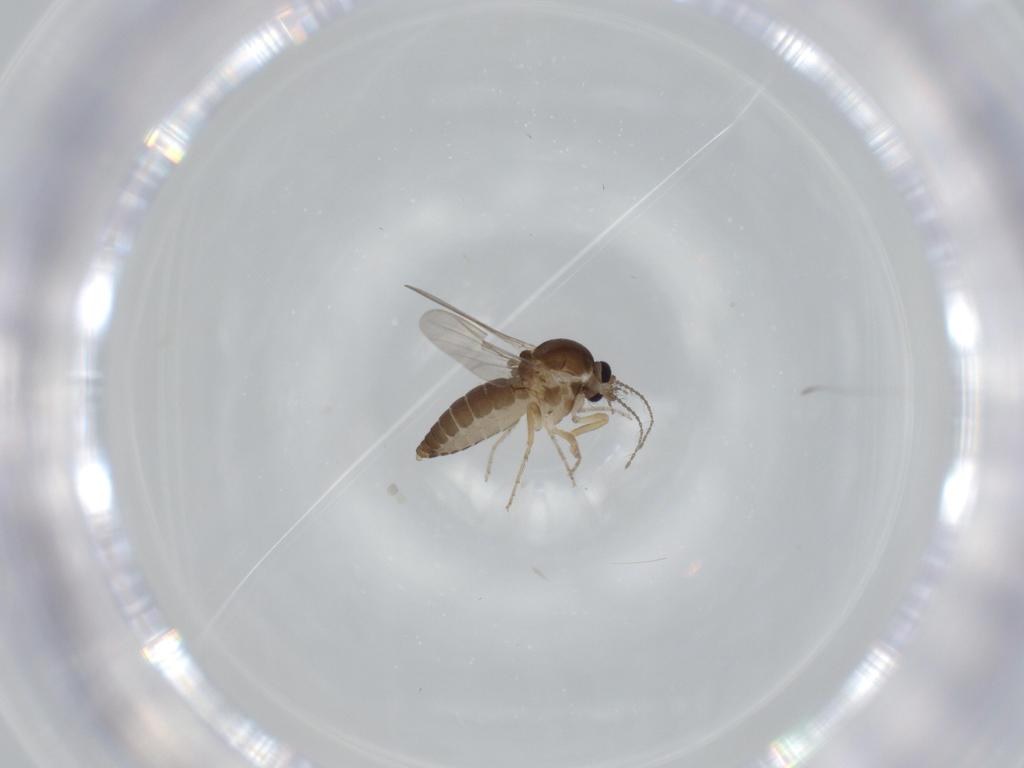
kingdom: Animalia
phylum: Arthropoda
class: Insecta
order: Diptera
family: Ceratopogonidae
